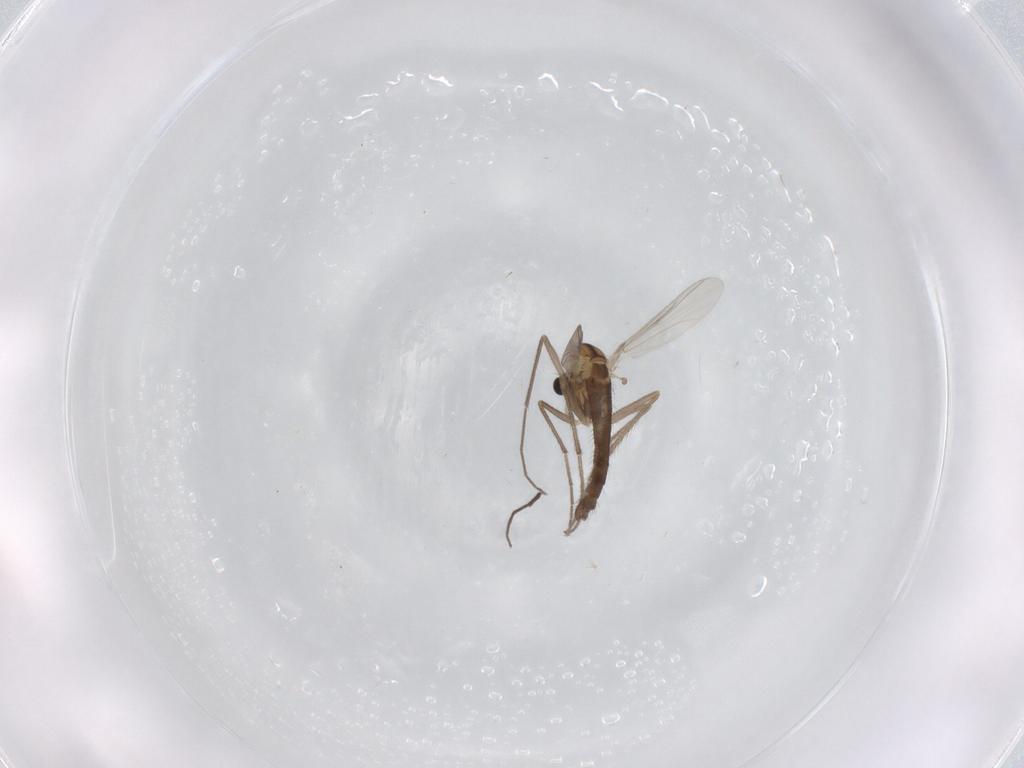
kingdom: Animalia
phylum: Arthropoda
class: Insecta
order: Diptera
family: Chironomidae
